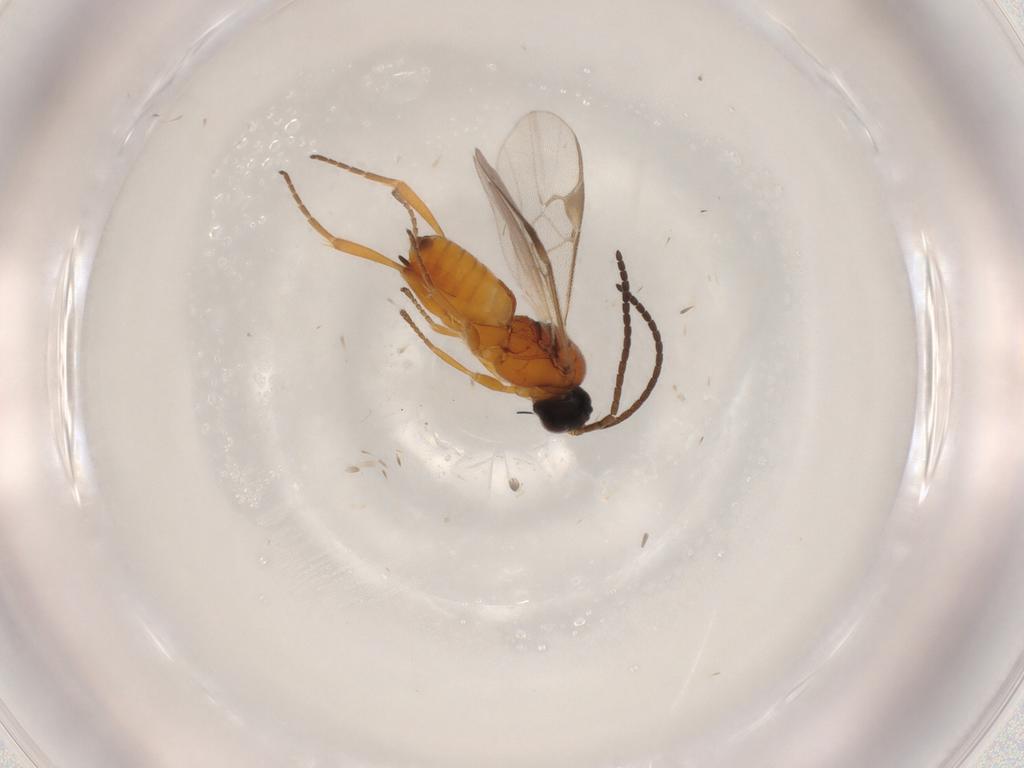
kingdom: Animalia
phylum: Arthropoda
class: Insecta
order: Hymenoptera
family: Braconidae
